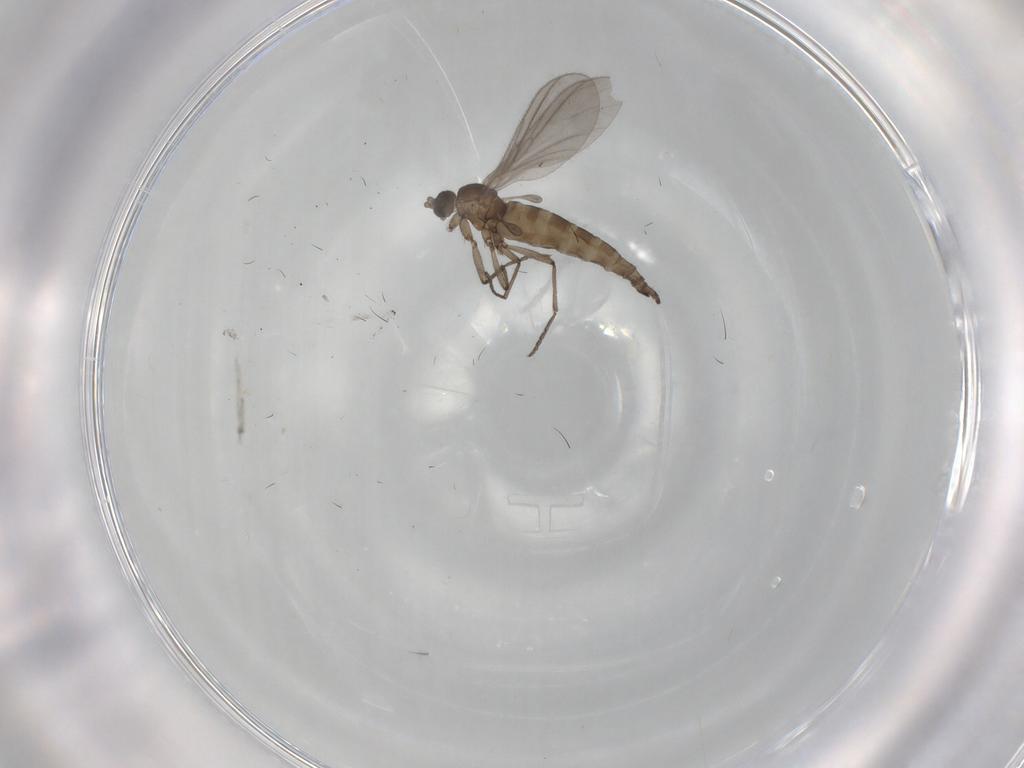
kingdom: Animalia
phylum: Arthropoda
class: Insecta
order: Diptera
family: Sciaridae
